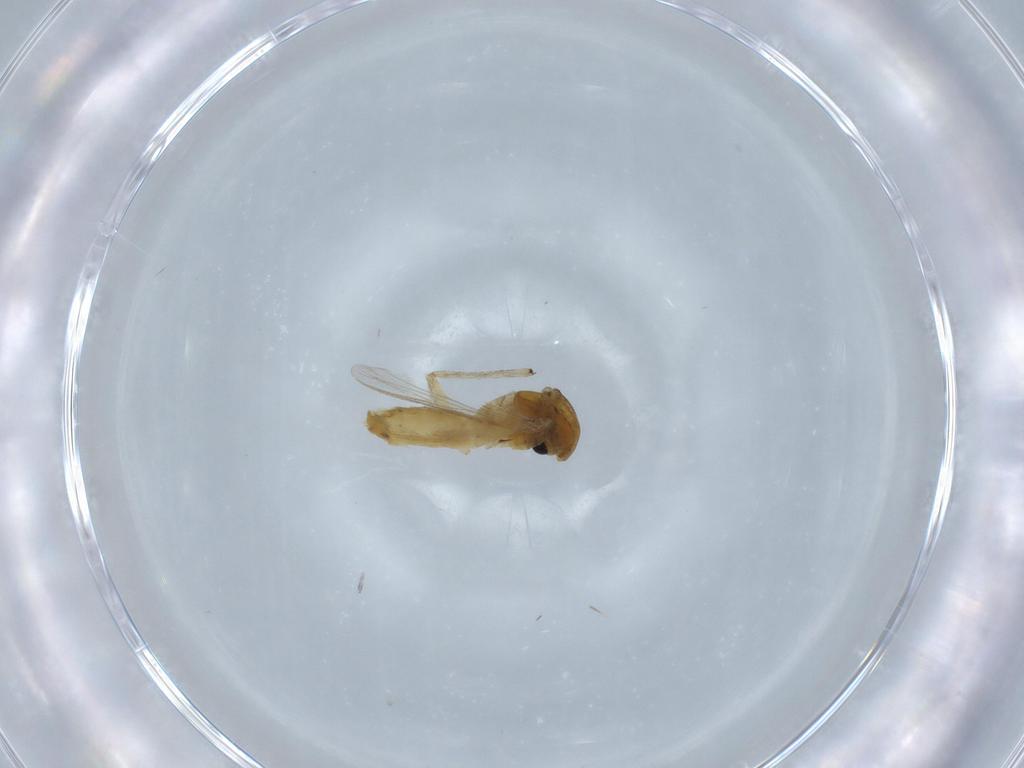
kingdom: Animalia
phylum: Arthropoda
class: Insecta
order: Diptera
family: Chironomidae
